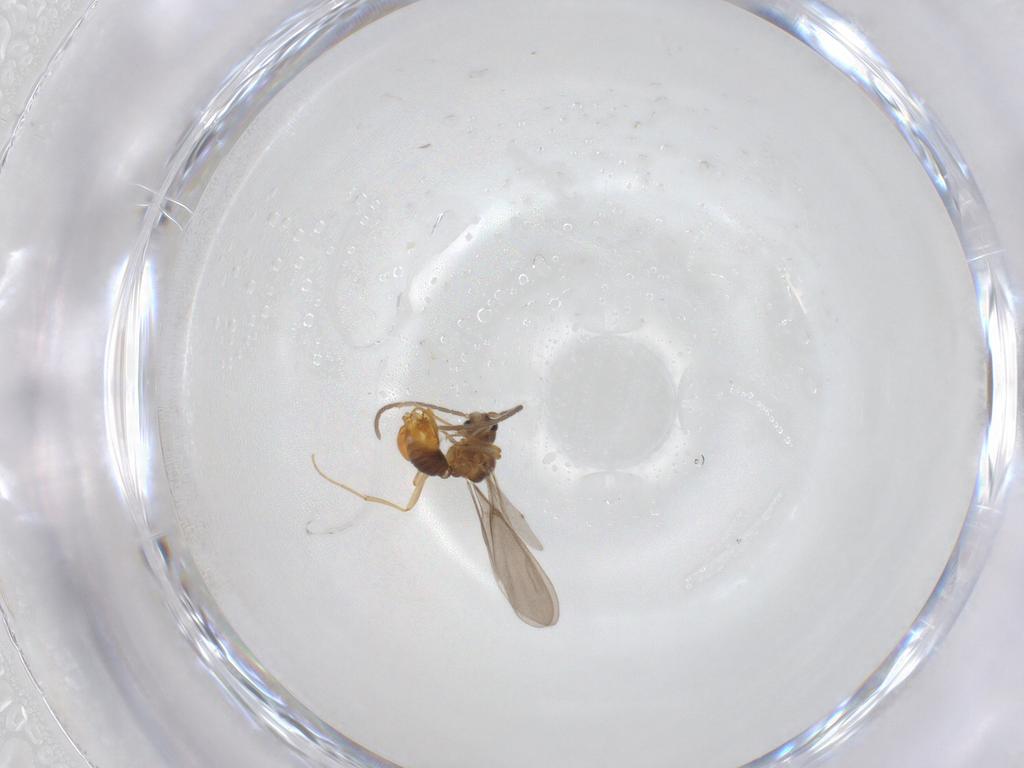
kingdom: Animalia
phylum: Arthropoda
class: Insecta
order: Hymenoptera
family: Formicidae
